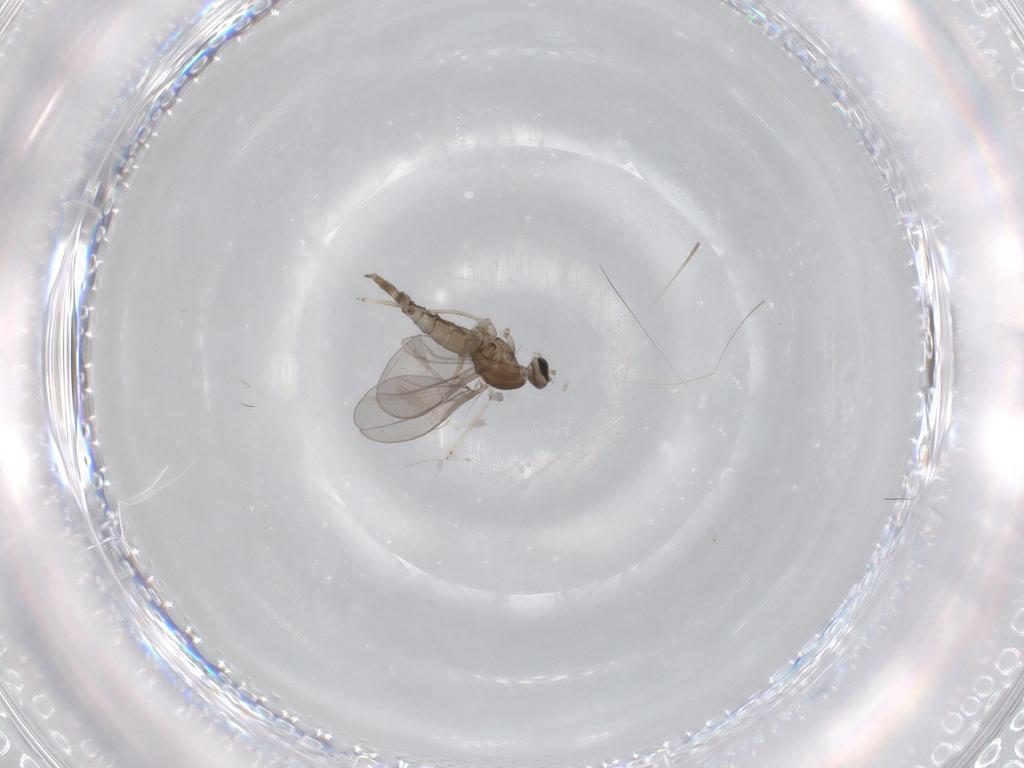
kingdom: Animalia
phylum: Arthropoda
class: Insecta
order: Diptera
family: Cecidomyiidae
